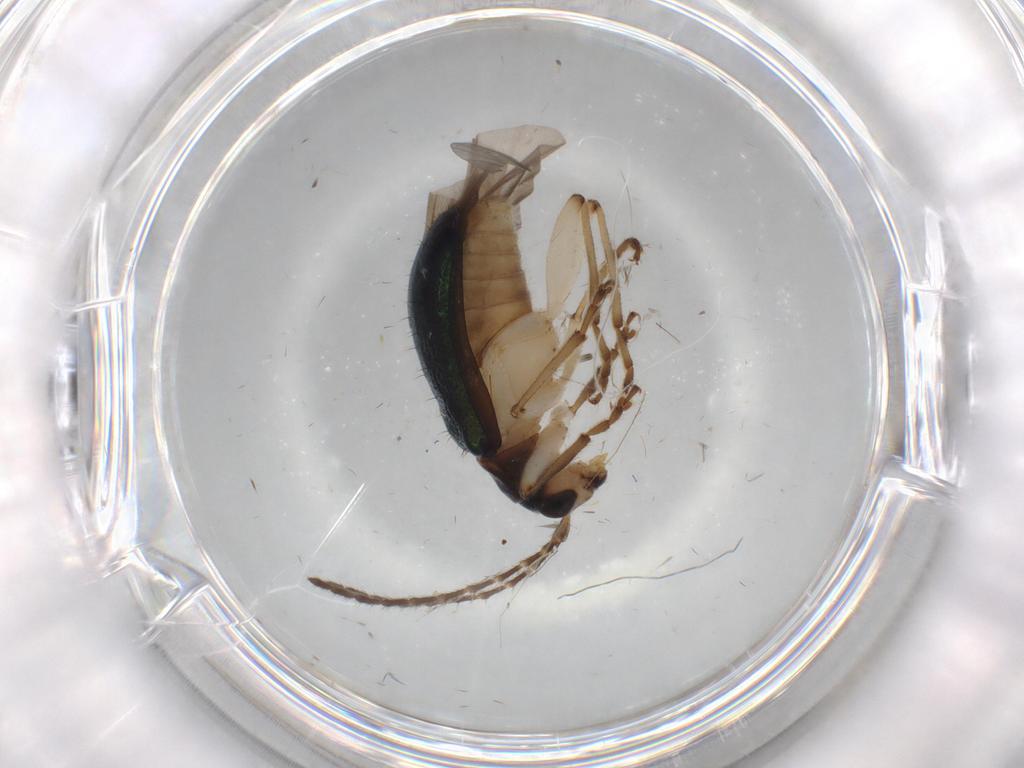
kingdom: Animalia
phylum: Arthropoda
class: Insecta
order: Coleoptera
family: Chrysomelidae
